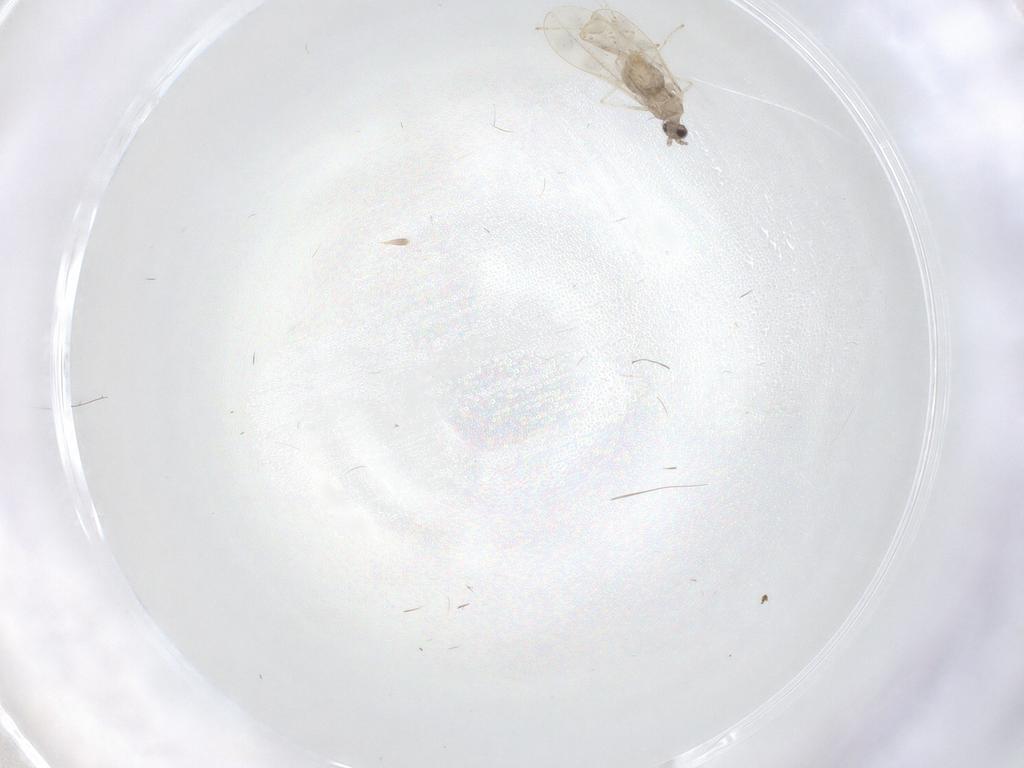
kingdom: Animalia
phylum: Arthropoda
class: Insecta
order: Diptera
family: Cecidomyiidae
